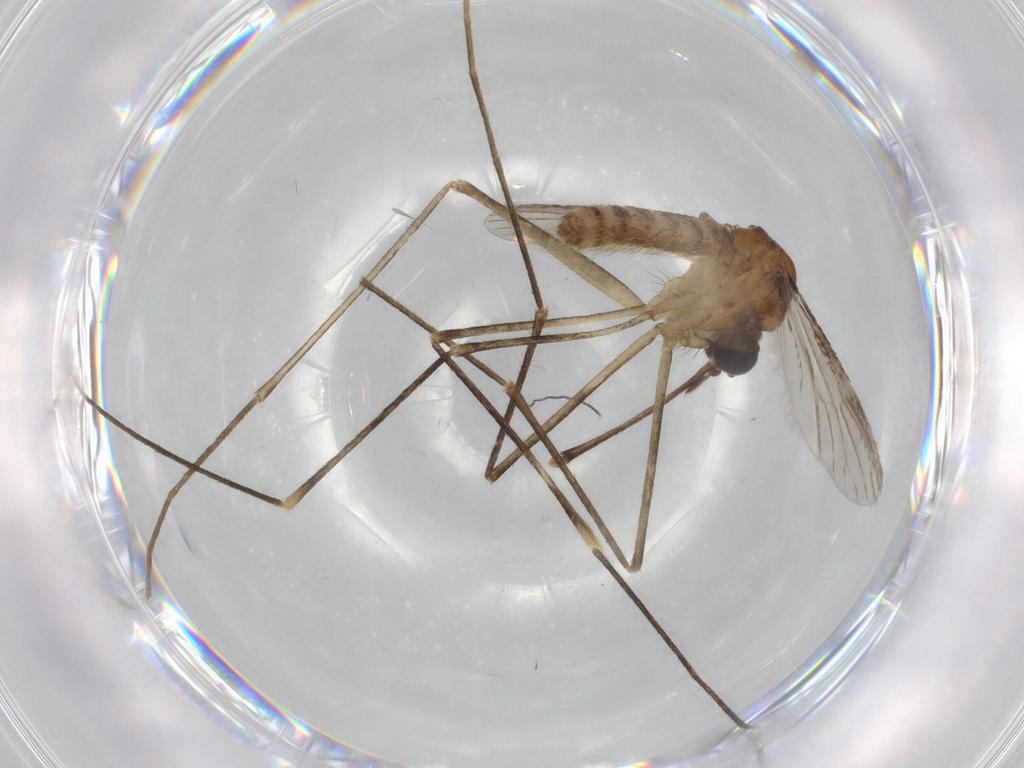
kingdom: Animalia
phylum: Arthropoda
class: Insecta
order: Diptera
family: Culicidae
